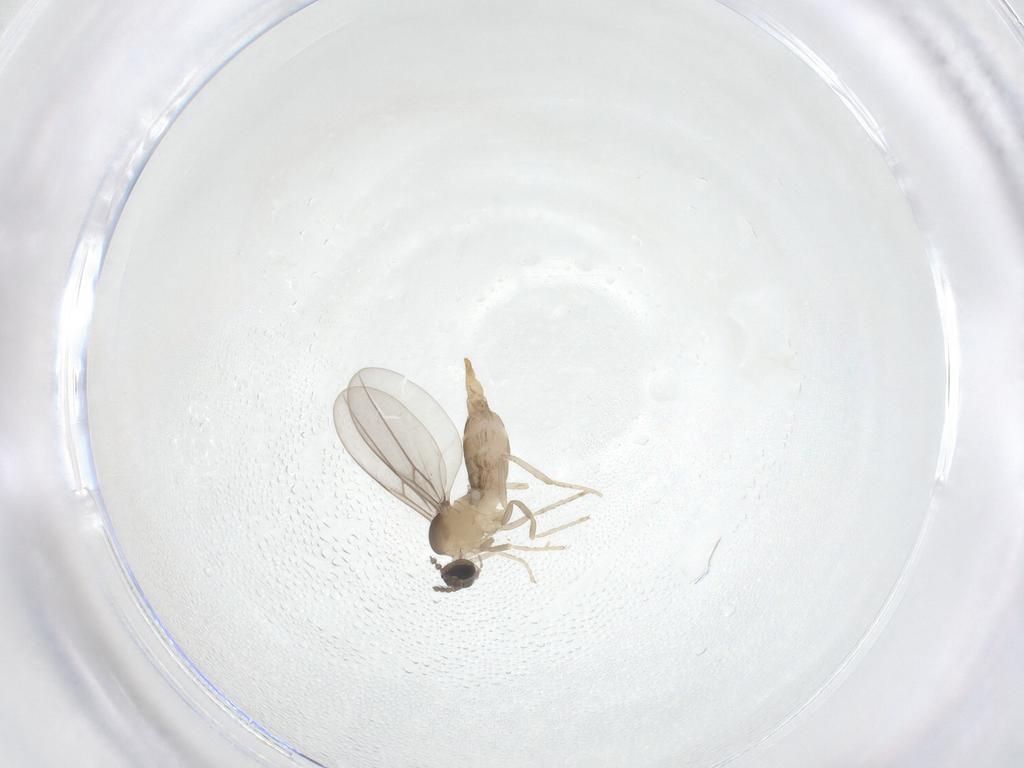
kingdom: Animalia
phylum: Arthropoda
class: Insecta
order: Diptera
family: Cecidomyiidae
